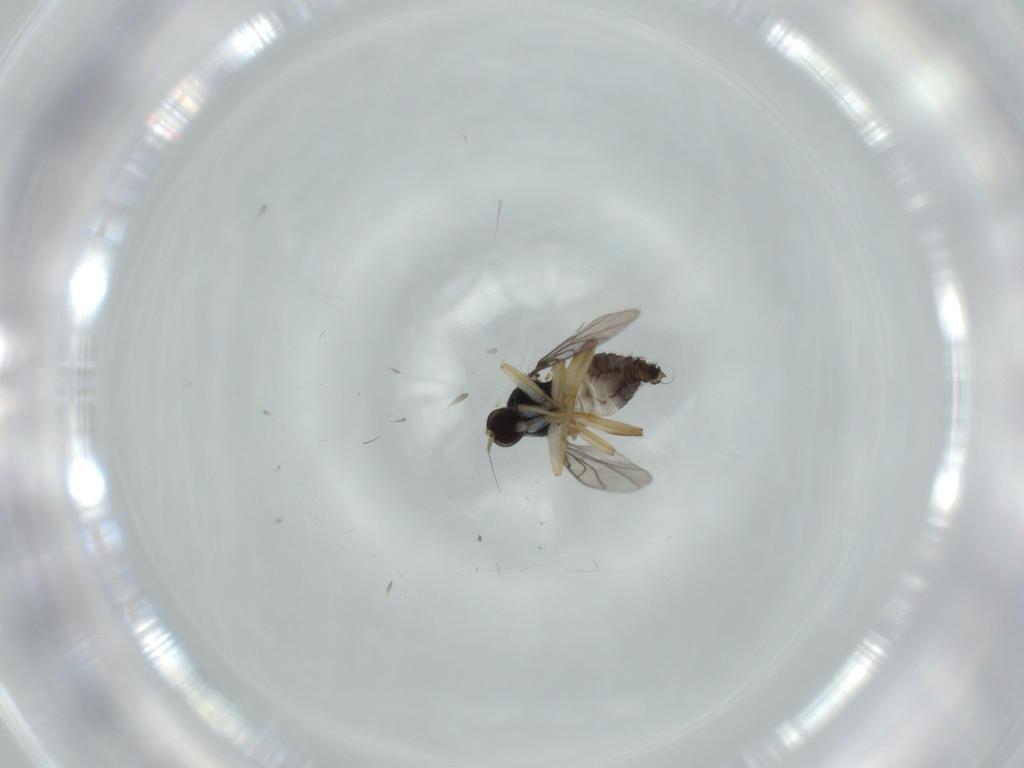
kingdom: Animalia
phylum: Arthropoda
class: Insecta
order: Diptera
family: Hybotidae
